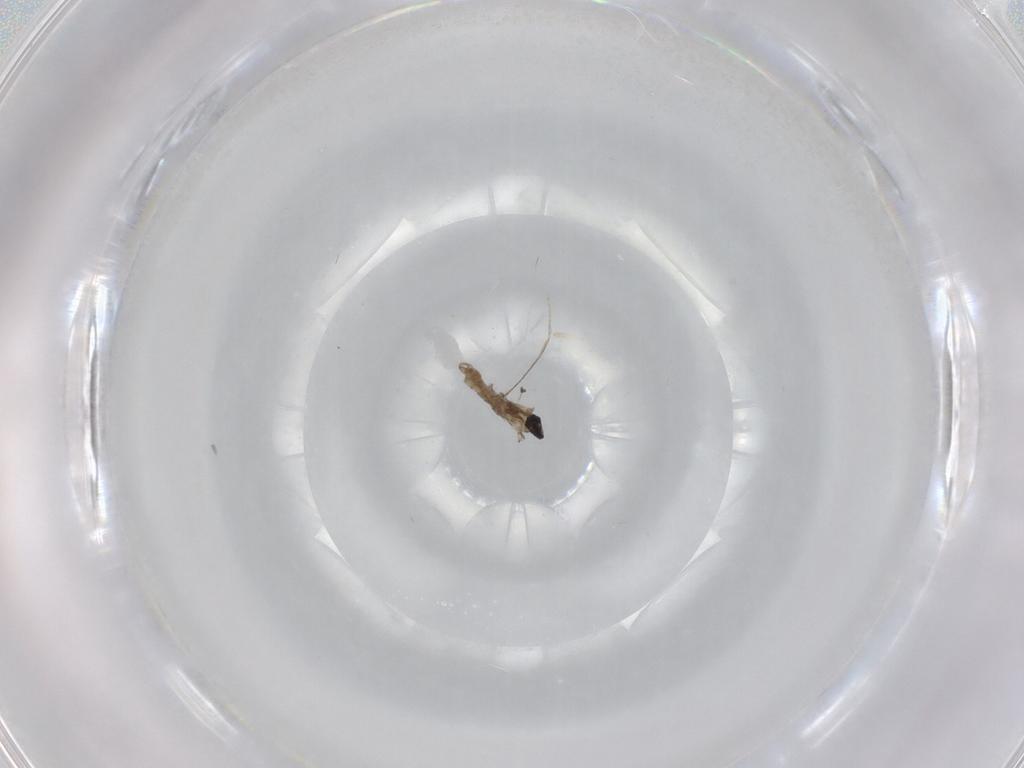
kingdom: Animalia
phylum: Arthropoda
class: Insecta
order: Diptera
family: Cecidomyiidae
